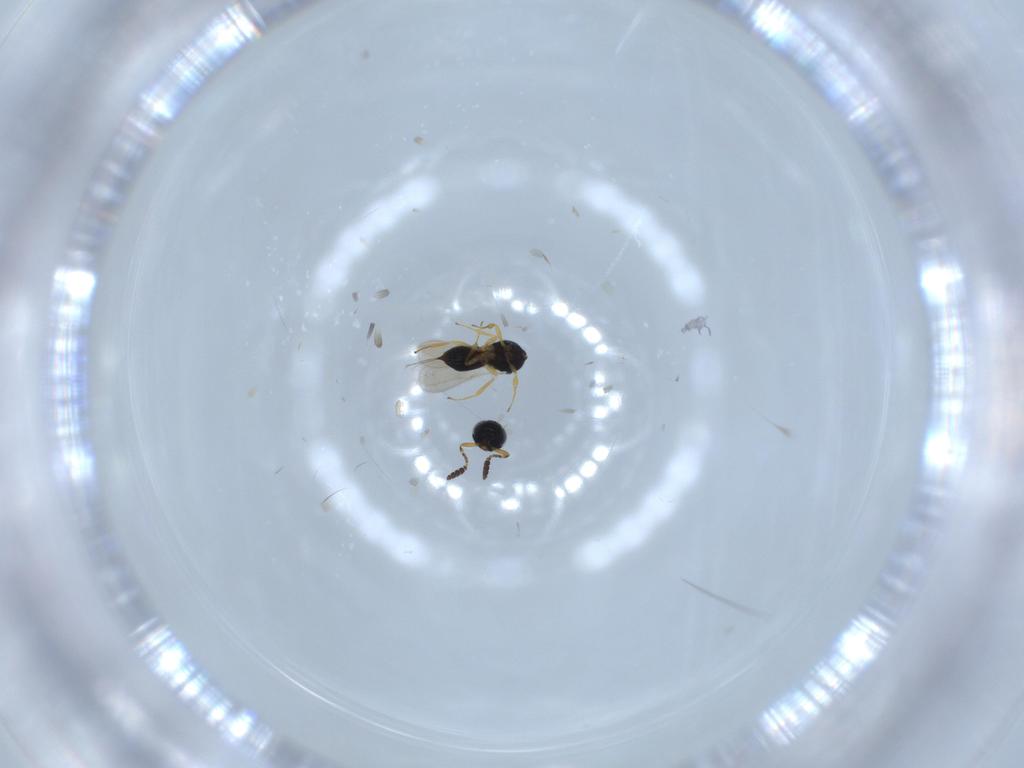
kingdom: Animalia
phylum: Arthropoda
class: Insecta
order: Hymenoptera
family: Scelionidae
